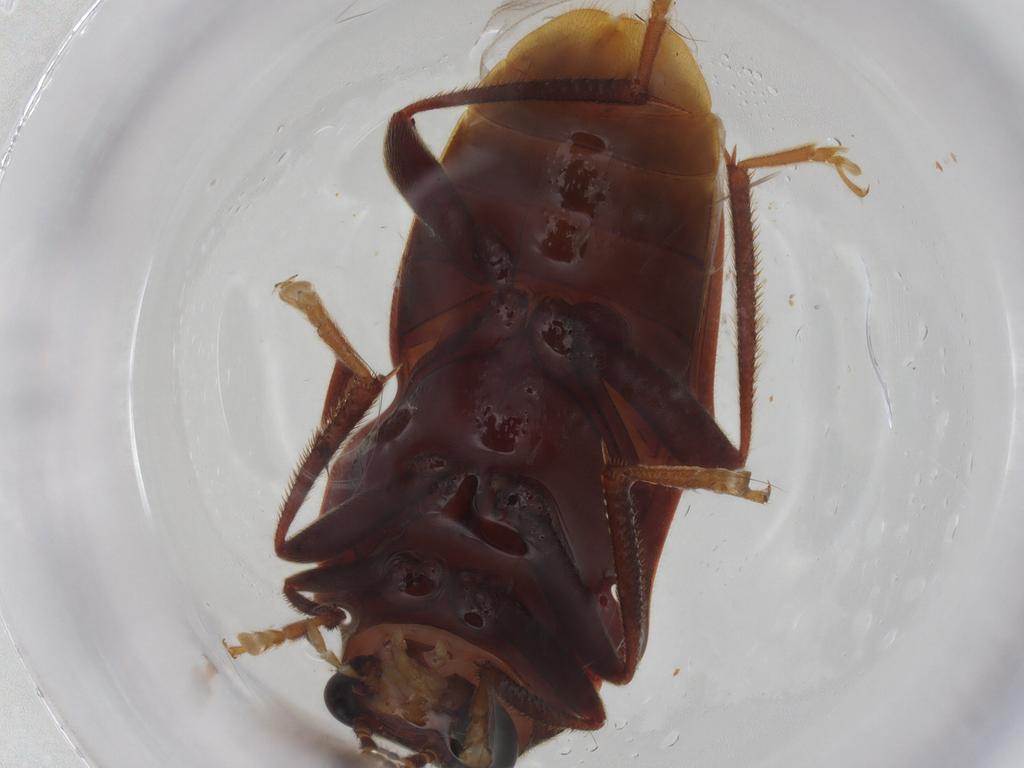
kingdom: Animalia
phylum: Arthropoda
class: Insecta
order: Coleoptera
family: Ptilodactylidae
